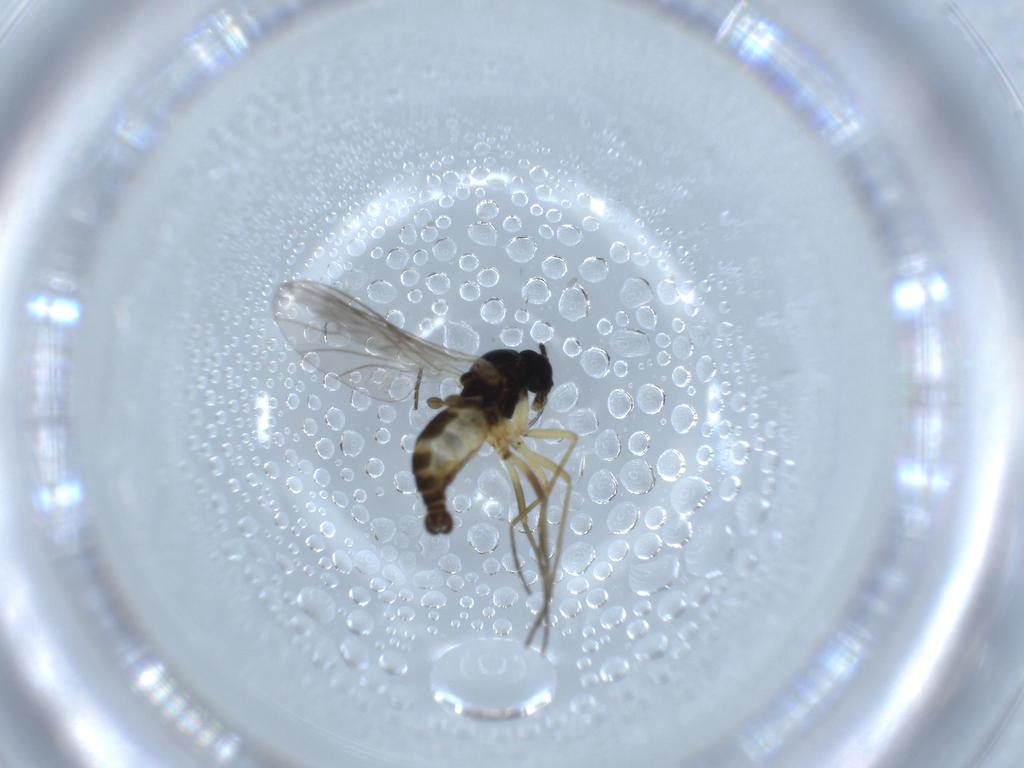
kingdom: Animalia
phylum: Arthropoda
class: Insecta
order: Diptera
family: Sciaridae
